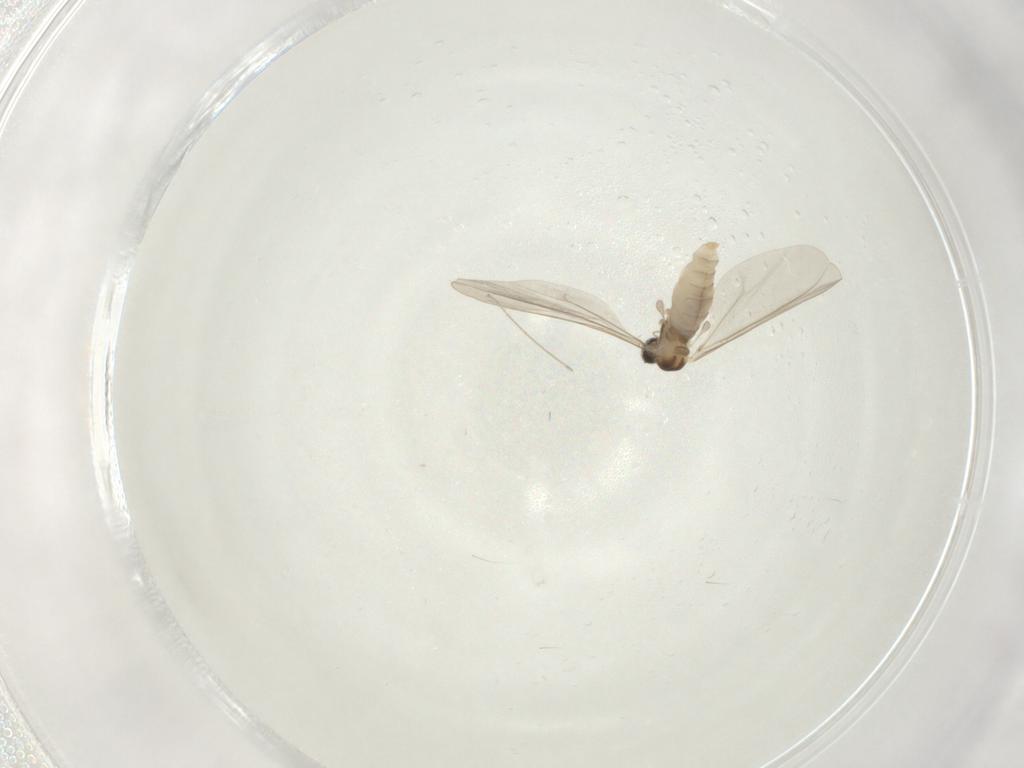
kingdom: Animalia
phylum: Arthropoda
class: Insecta
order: Diptera
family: Cecidomyiidae
